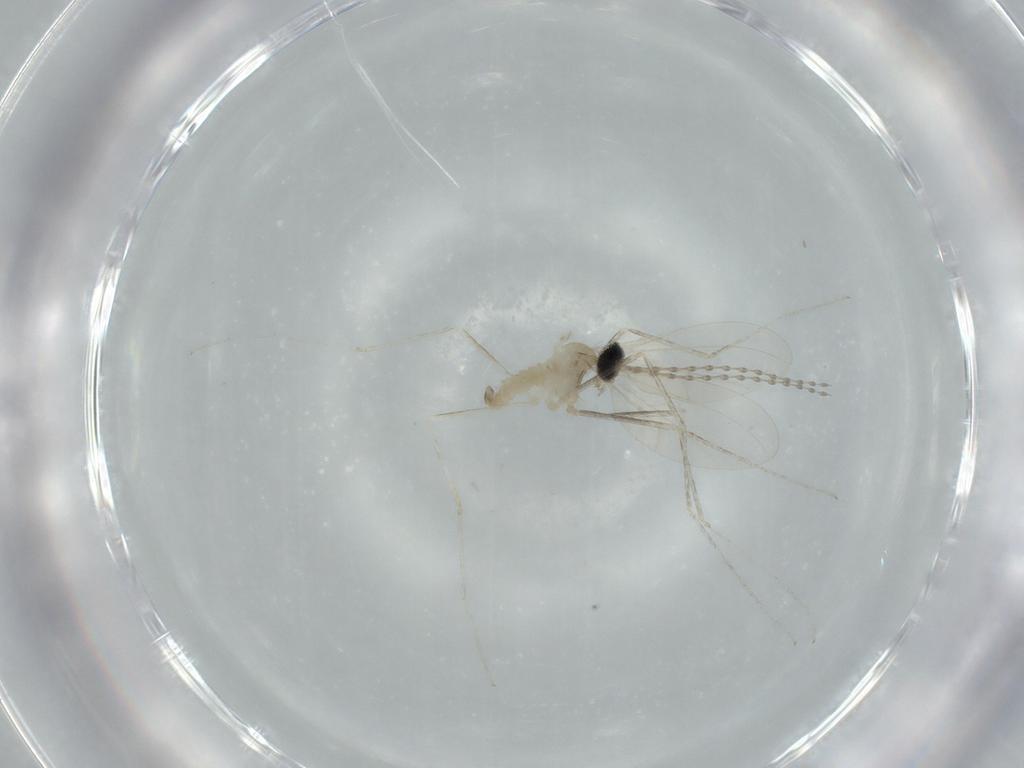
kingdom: Animalia
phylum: Arthropoda
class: Insecta
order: Diptera
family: Cecidomyiidae
